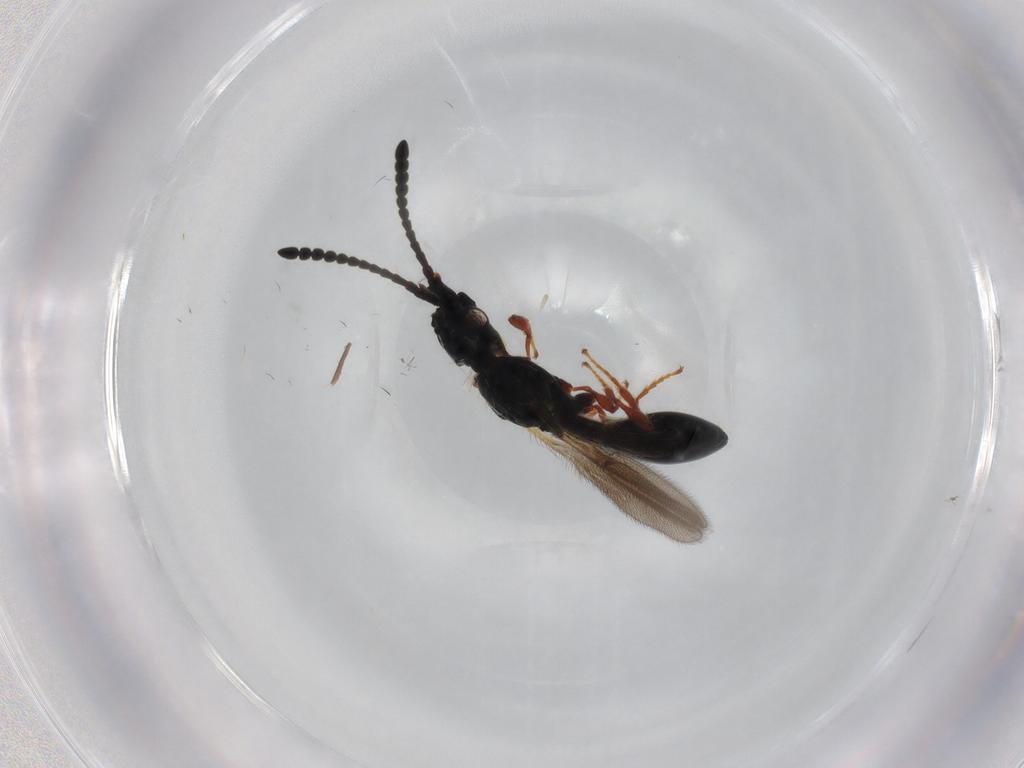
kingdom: Animalia
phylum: Arthropoda
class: Insecta
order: Hymenoptera
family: Diapriidae
